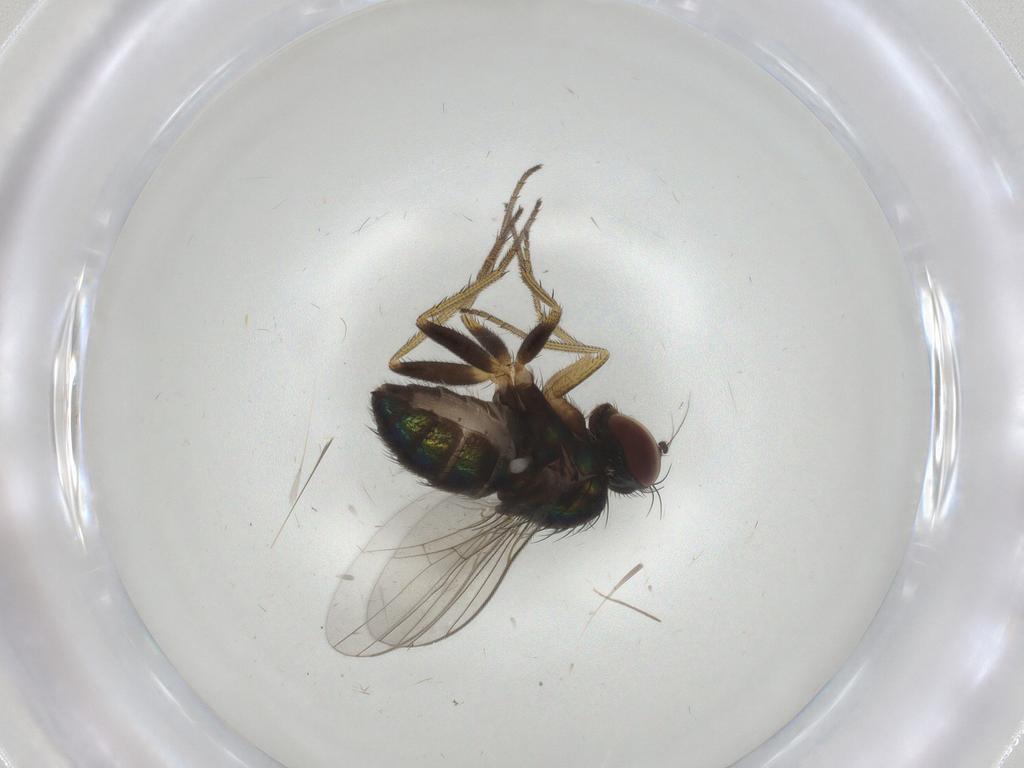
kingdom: Animalia
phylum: Arthropoda
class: Insecta
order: Diptera
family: Dolichopodidae
